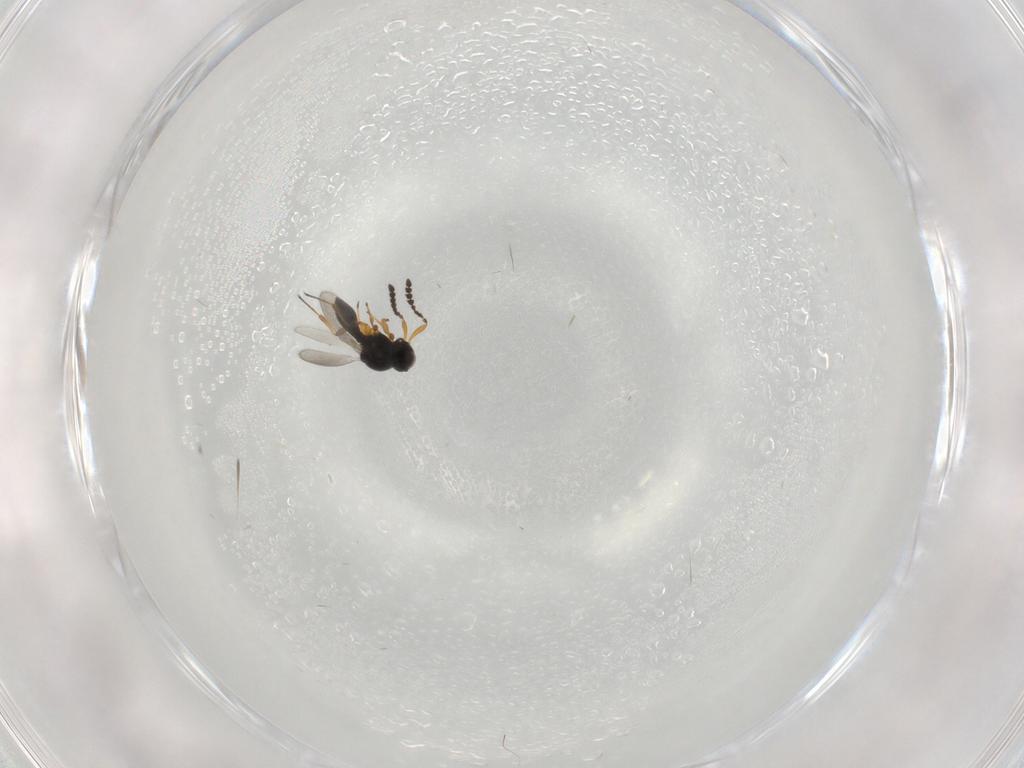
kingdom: Animalia
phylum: Arthropoda
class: Insecta
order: Hymenoptera
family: Platygastridae
